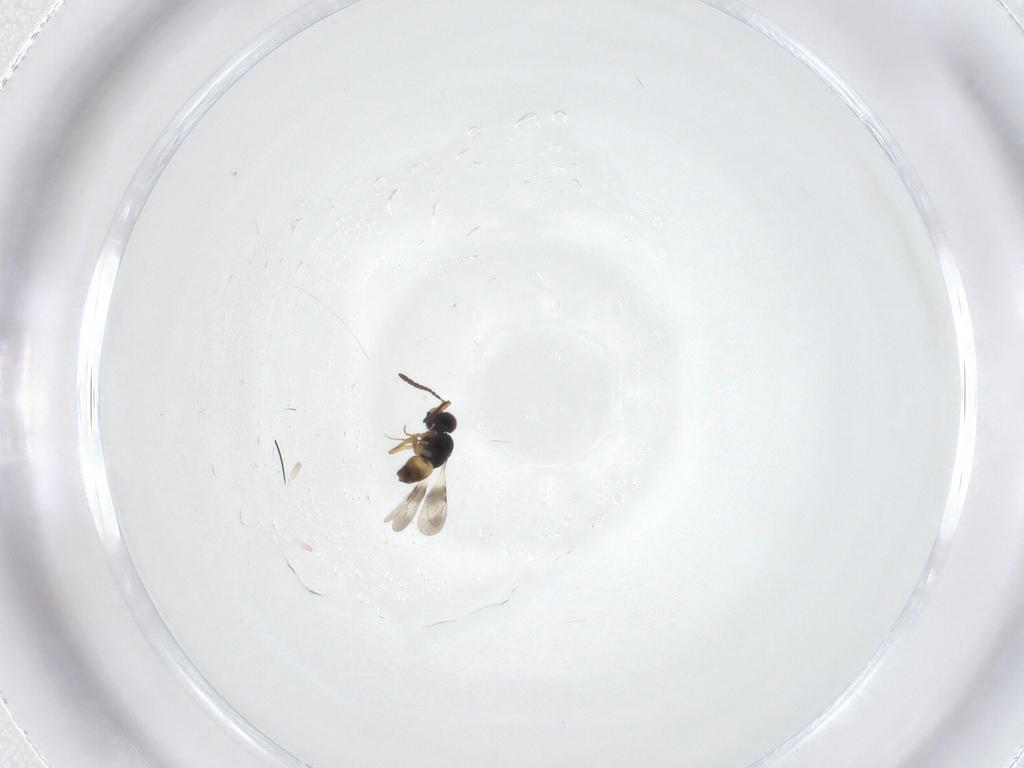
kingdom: Animalia
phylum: Arthropoda
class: Insecta
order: Hymenoptera
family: Ceraphronidae
